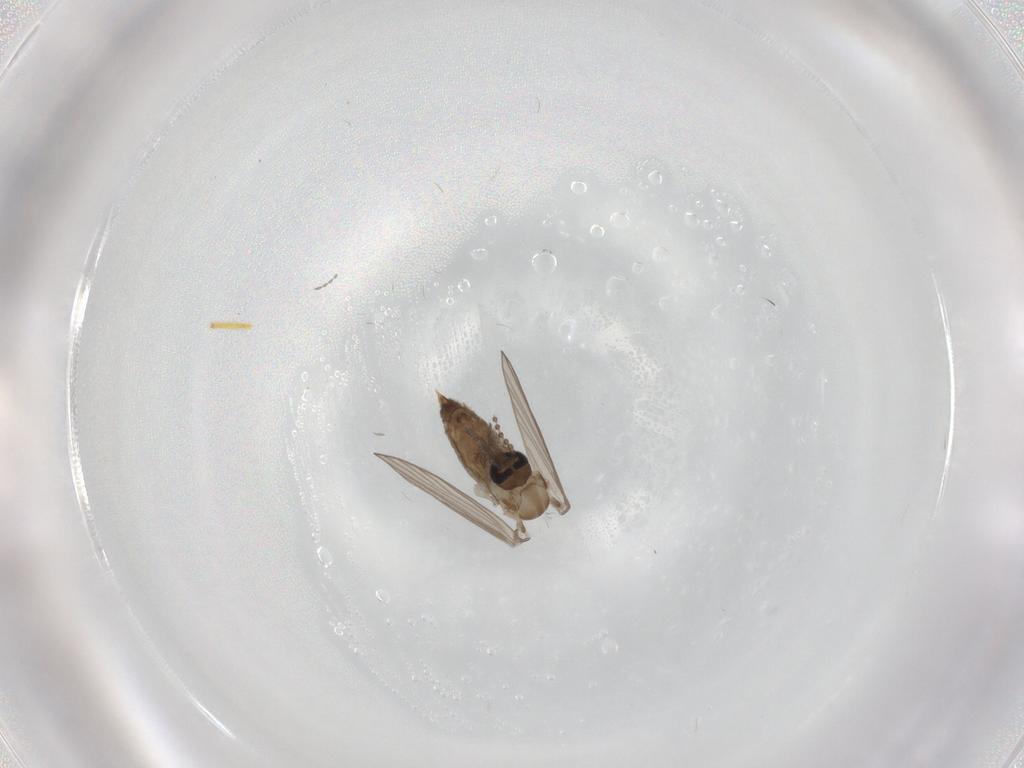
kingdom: Animalia
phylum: Arthropoda
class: Insecta
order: Diptera
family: Psychodidae
